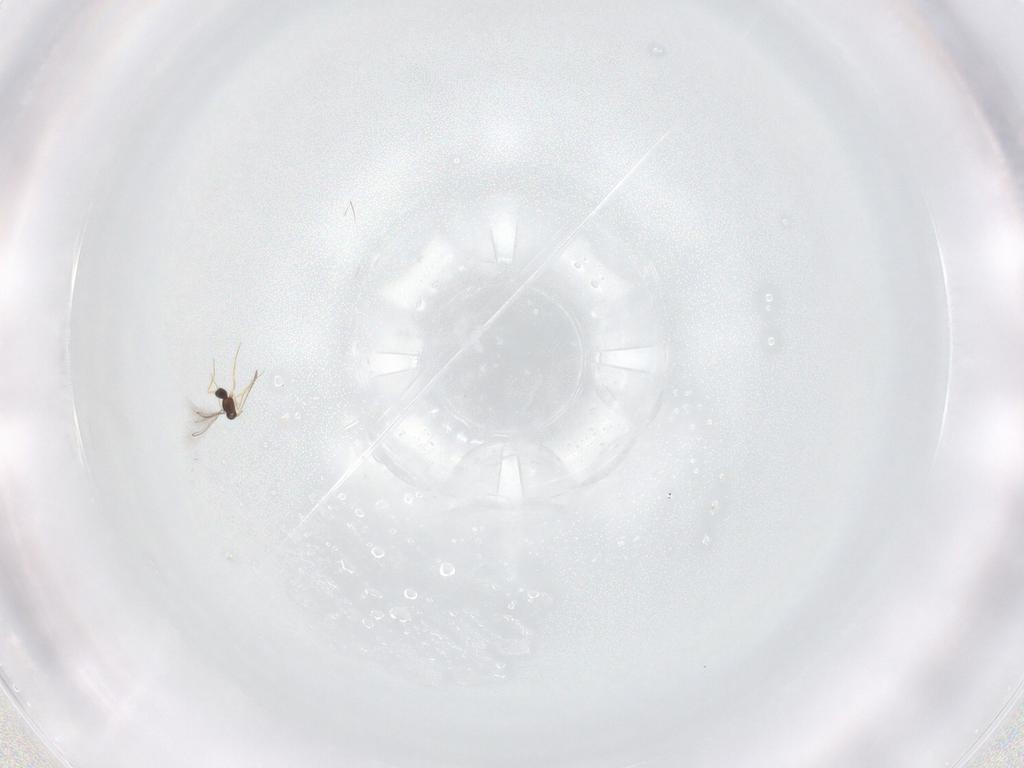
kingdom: Animalia
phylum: Arthropoda
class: Insecta
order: Hymenoptera
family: Mymaridae
